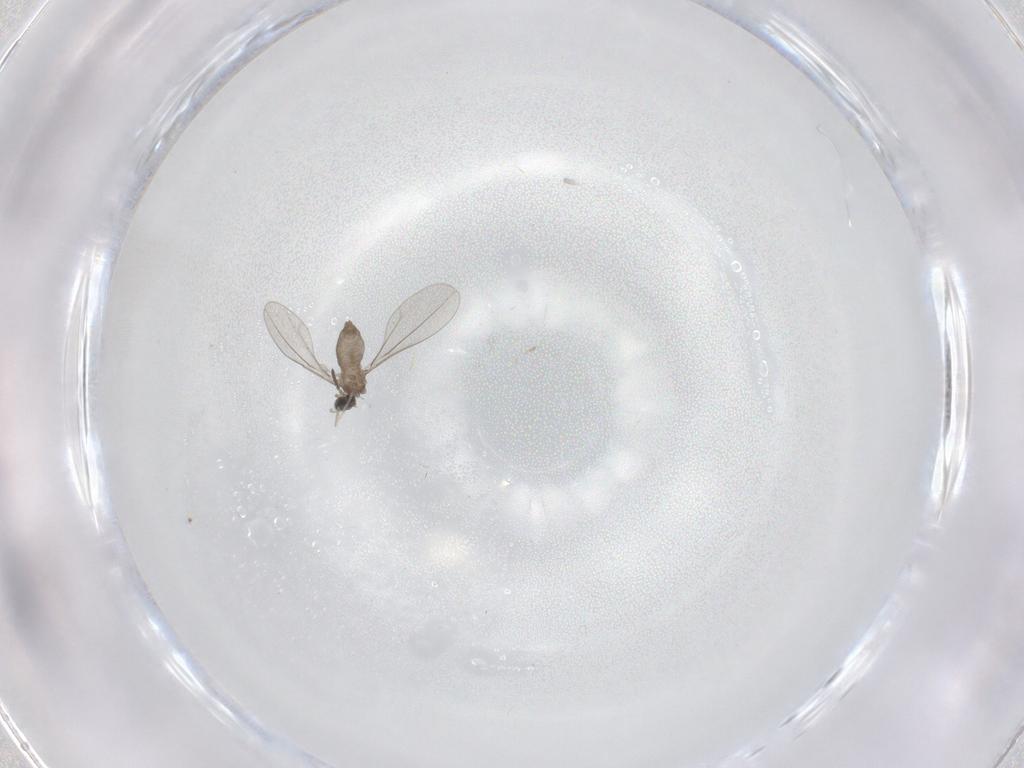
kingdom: Animalia
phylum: Arthropoda
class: Insecta
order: Diptera
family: Cecidomyiidae
